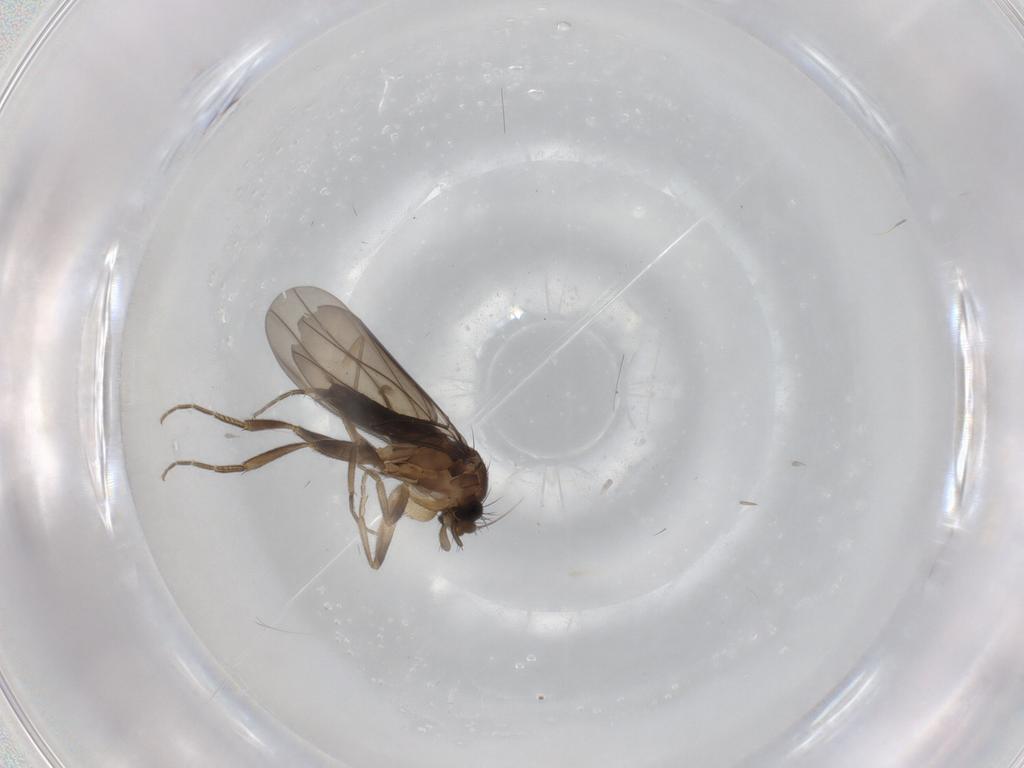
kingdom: Animalia
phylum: Arthropoda
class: Insecta
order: Diptera
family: Phoridae
